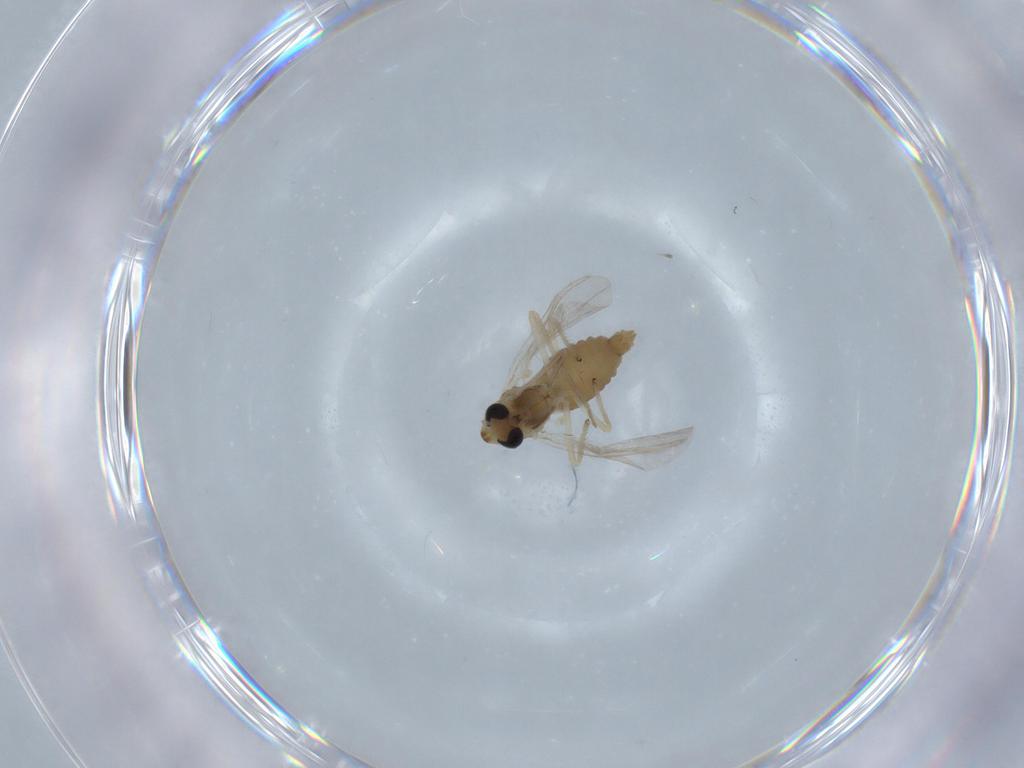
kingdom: Animalia
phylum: Arthropoda
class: Insecta
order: Diptera
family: Chironomidae
